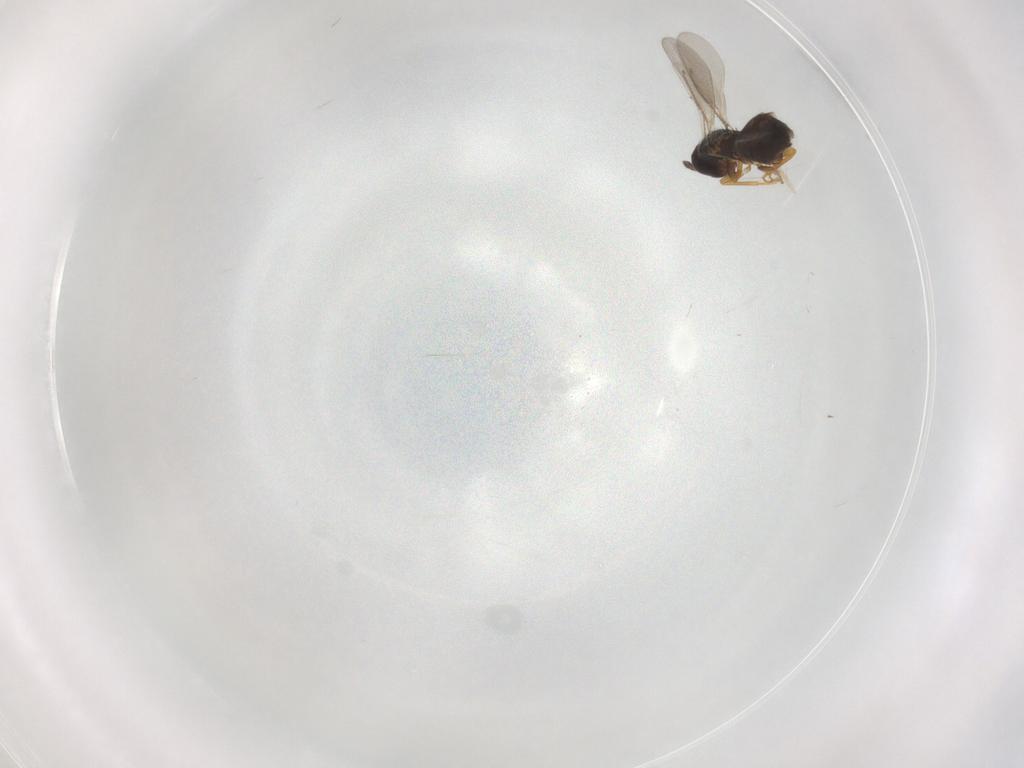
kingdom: Animalia
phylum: Arthropoda
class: Insecta
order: Hymenoptera
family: Eulophidae
